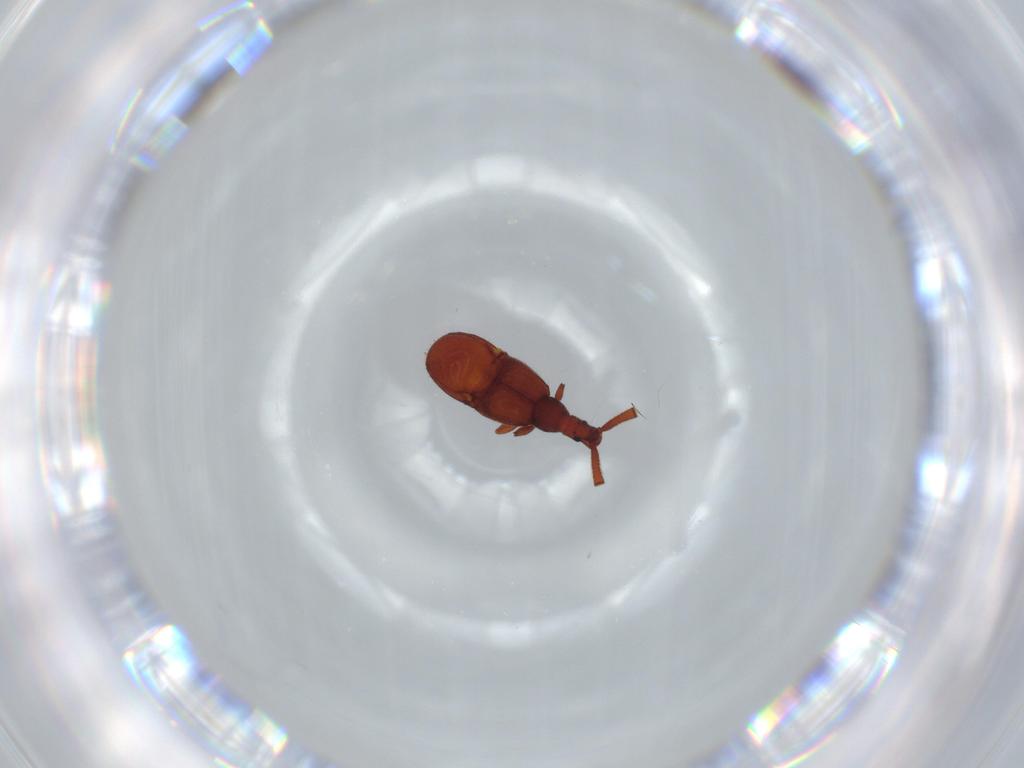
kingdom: Animalia
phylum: Arthropoda
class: Insecta
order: Coleoptera
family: Staphylinidae
